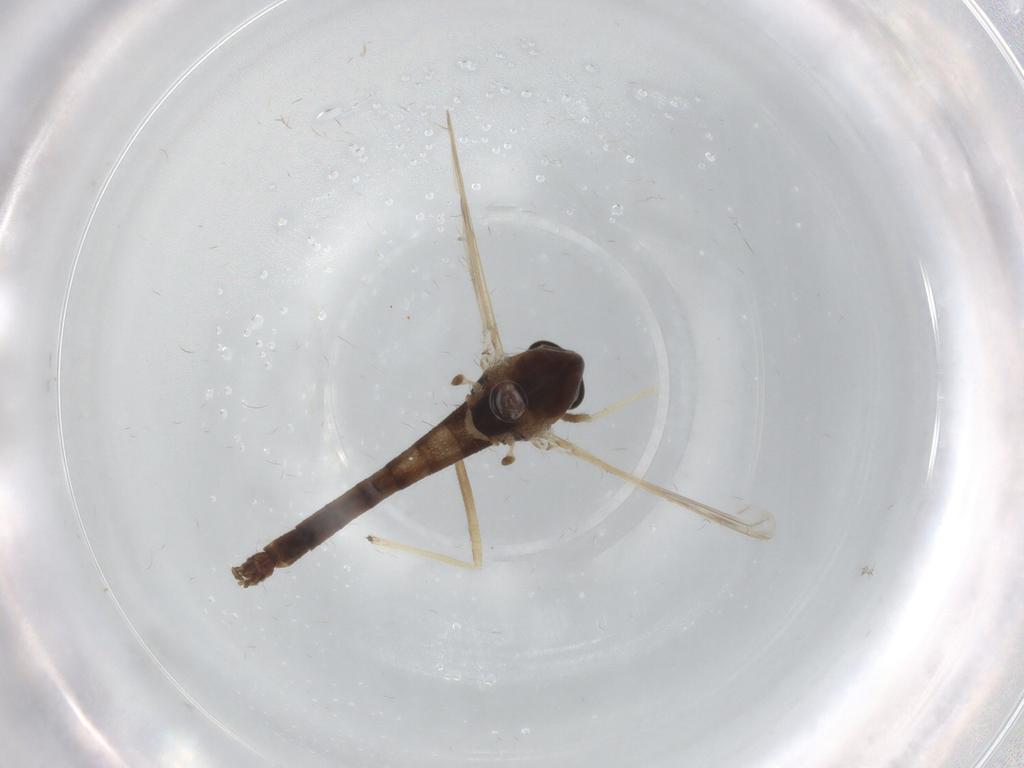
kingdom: Animalia
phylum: Arthropoda
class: Insecta
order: Diptera
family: Chironomidae
